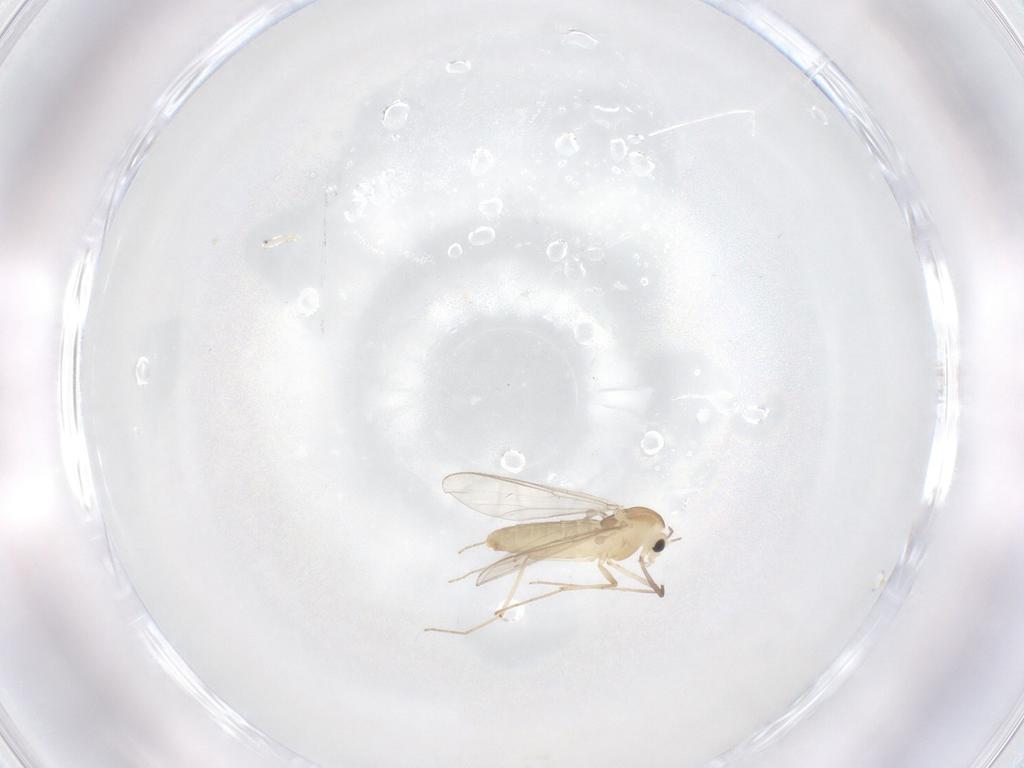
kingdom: Animalia
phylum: Arthropoda
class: Insecta
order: Diptera
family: Chironomidae
